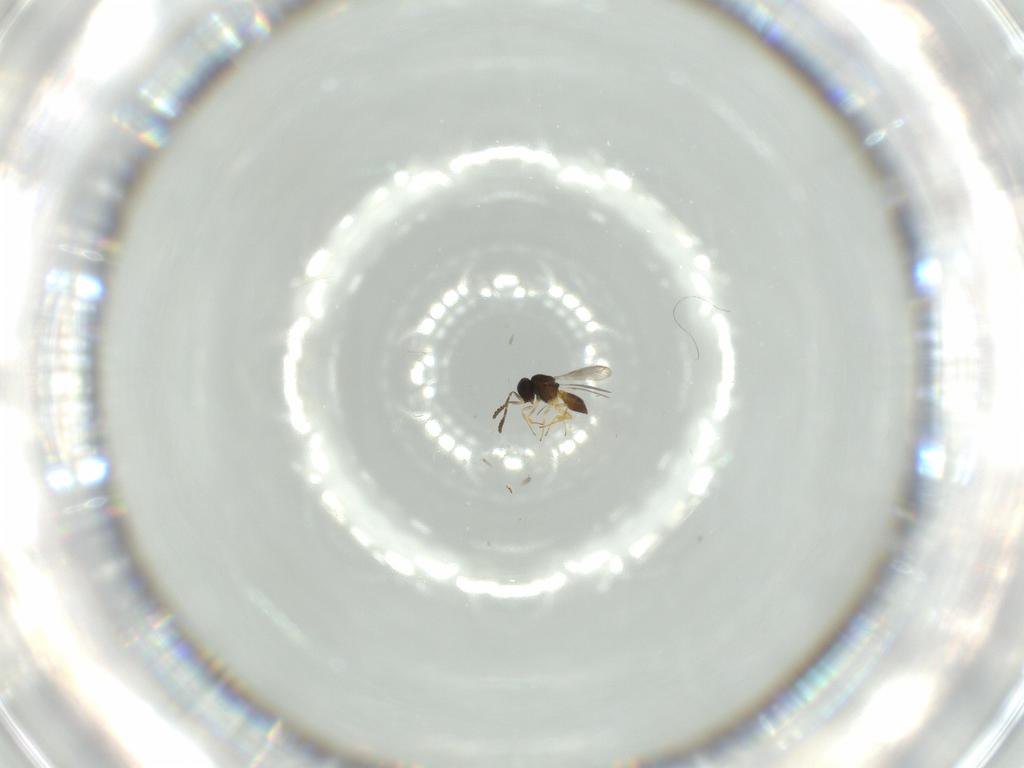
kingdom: Animalia
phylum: Arthropoda
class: Insecta
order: Hymenoptera
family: Scelionidae
